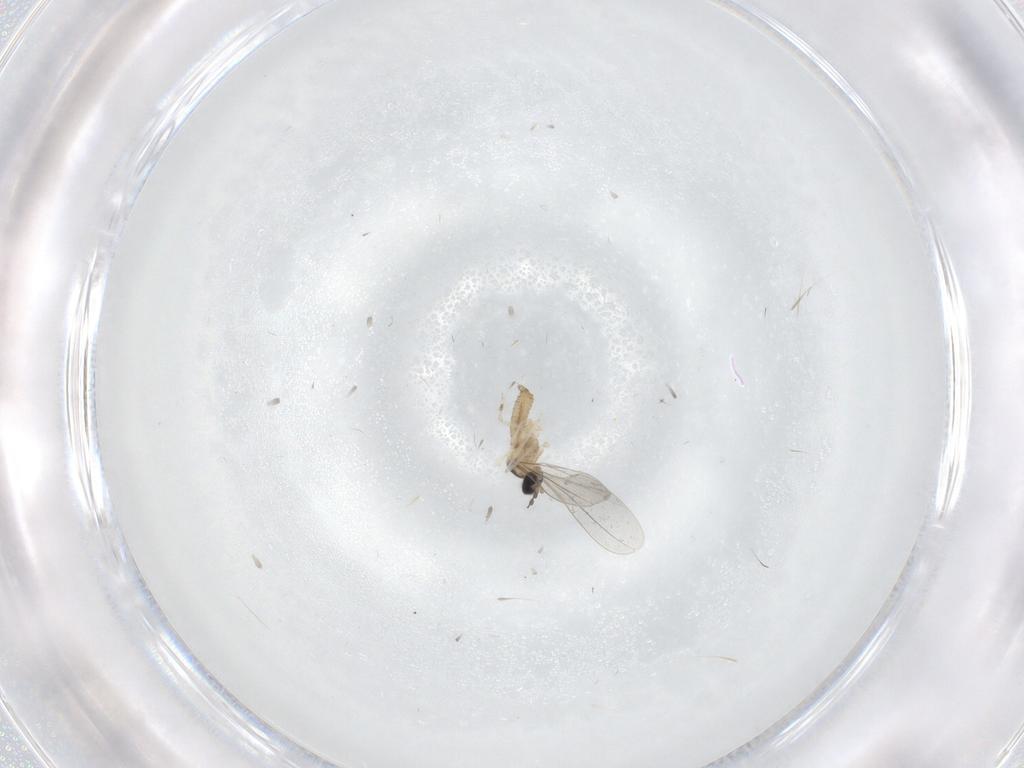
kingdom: Animalia
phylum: Arthropoda
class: Insecta
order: Diptera
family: Cecidomyiidae
